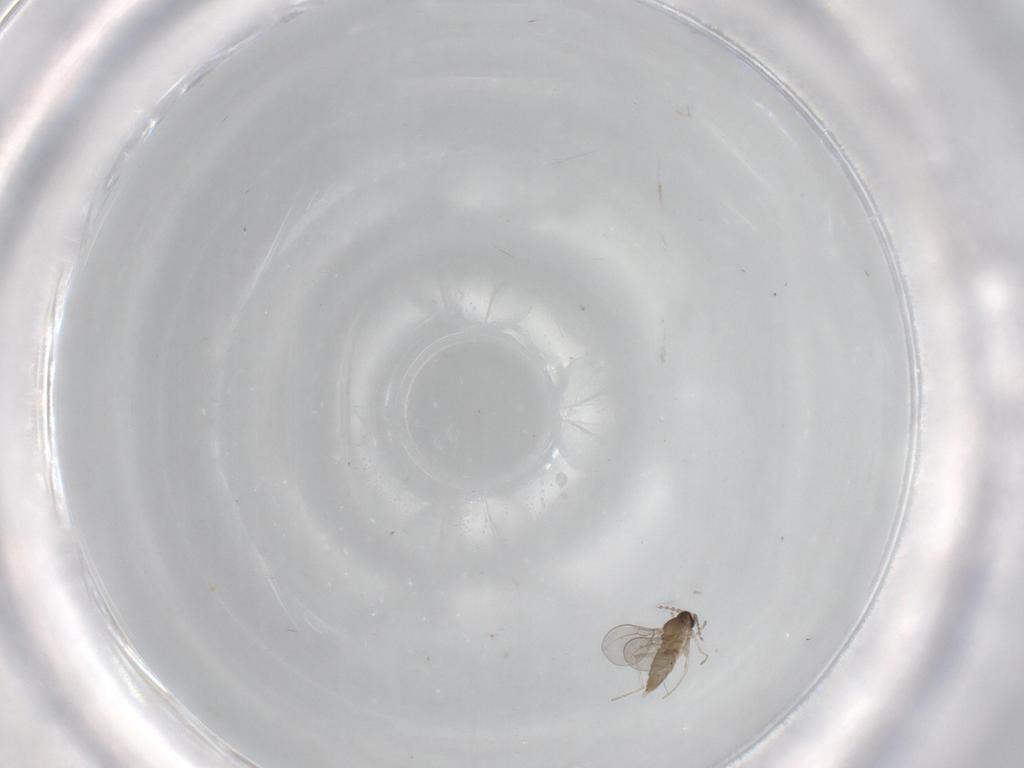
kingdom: Animalia
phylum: Arthropoda
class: Insecta
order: Diptera
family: Cecidomyiidae
